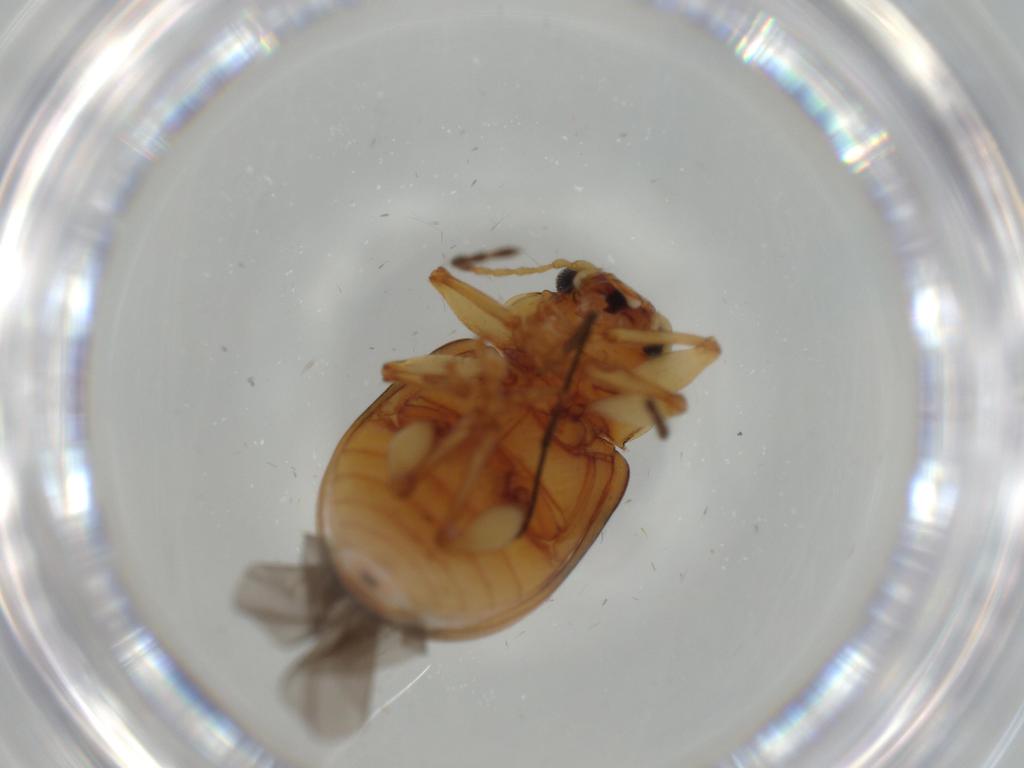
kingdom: Animalia
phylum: Arthropoda
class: Insecta
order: Coleoptera
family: Chrysomelidae
